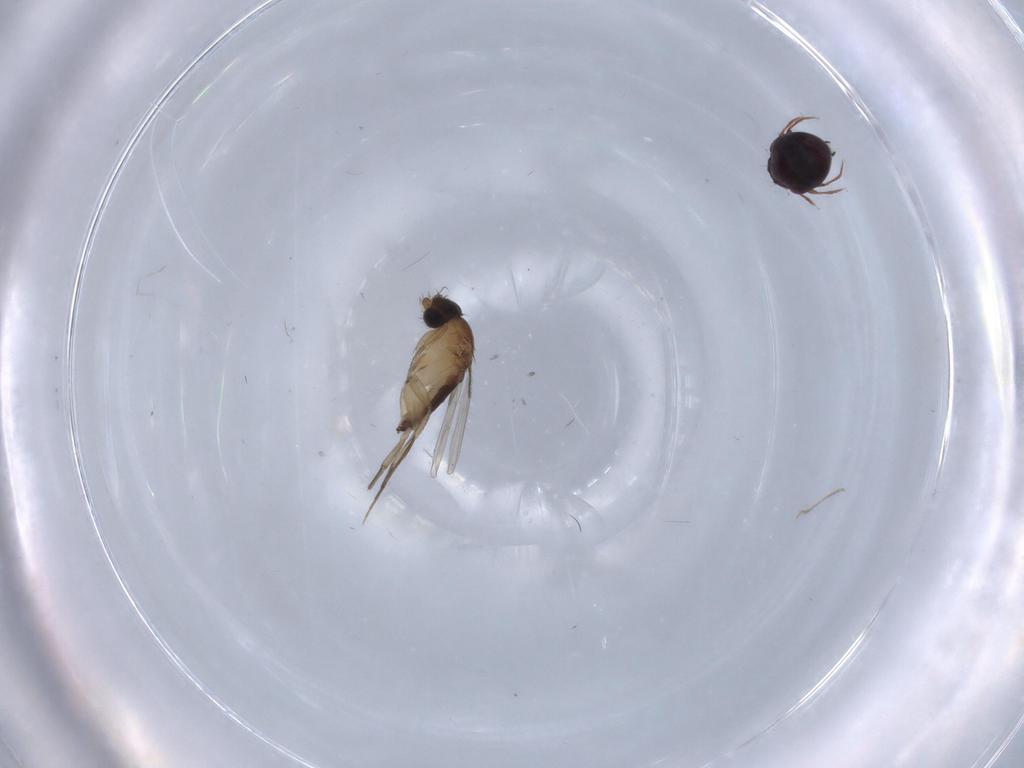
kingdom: Animalia
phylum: Arthropoda
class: Insecta
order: Diptera
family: Phoridae
